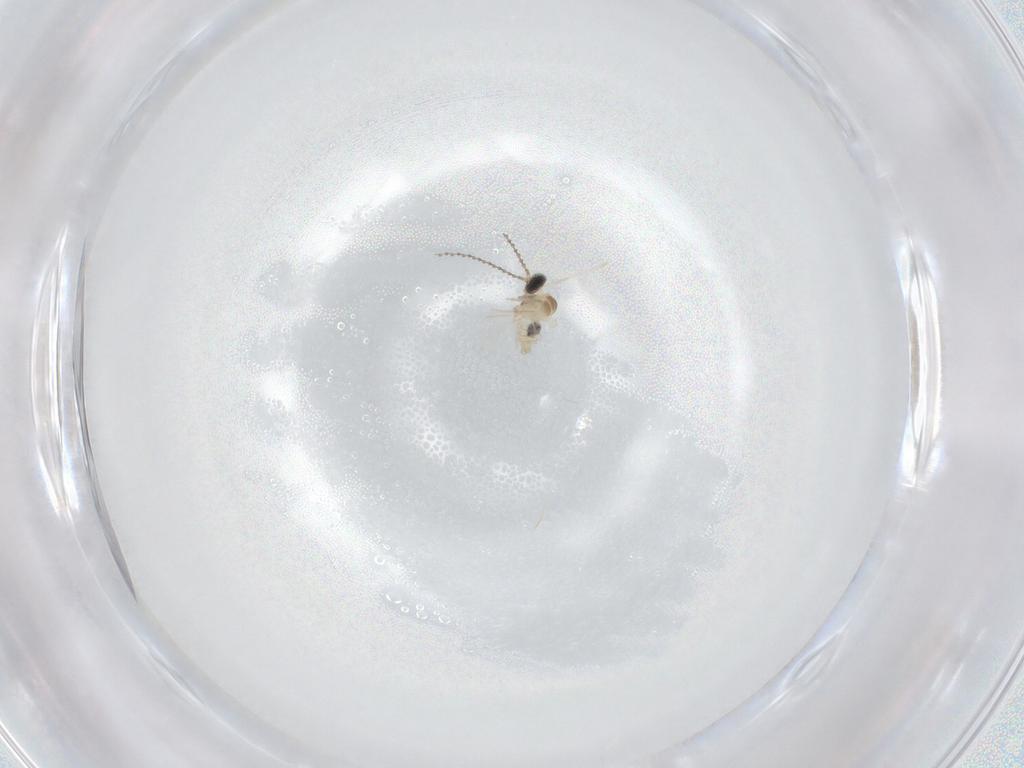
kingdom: Animalia
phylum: Arthropoda
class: Insecta
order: Diptera
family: Cecidomyiidae
